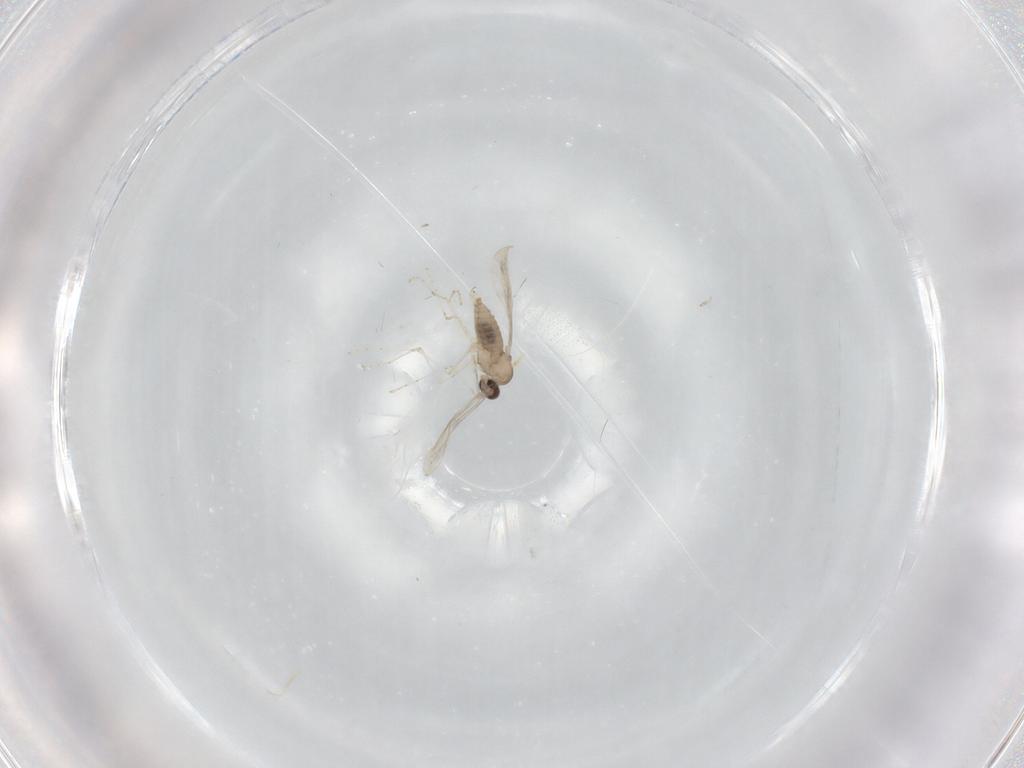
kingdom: Animalia
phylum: Arthropoda
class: Insecta
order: Diptera
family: Cecidomyiidae
